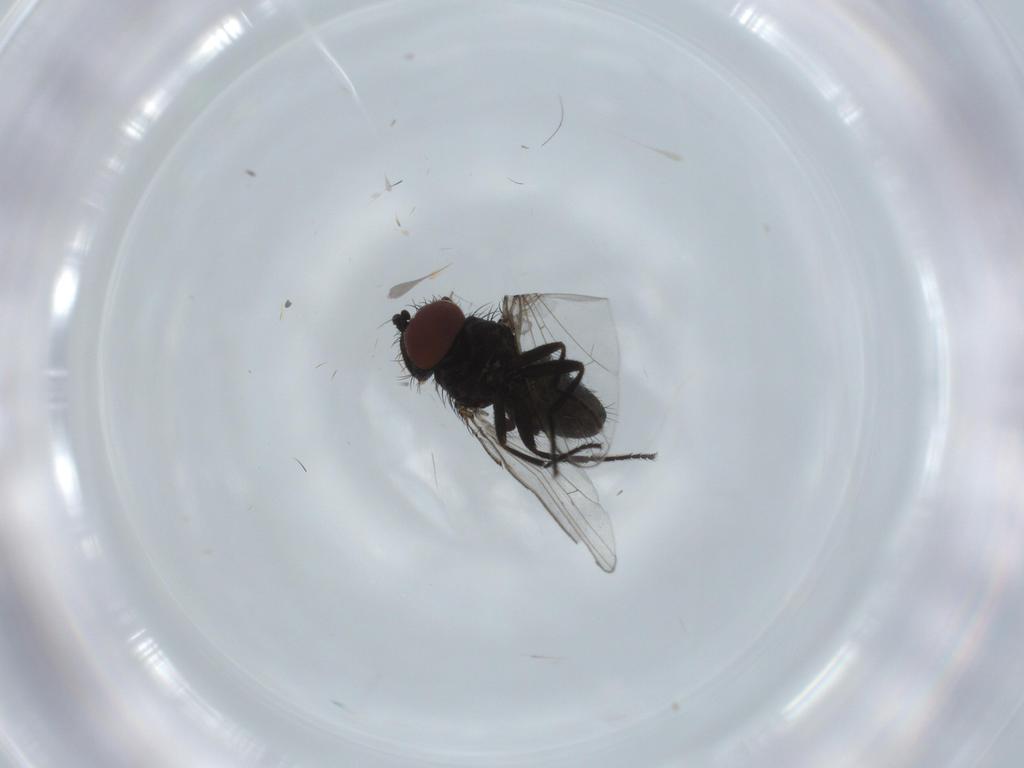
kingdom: Animalia
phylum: Arthropoda
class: Insecta
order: Diptera
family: Milichiidae
